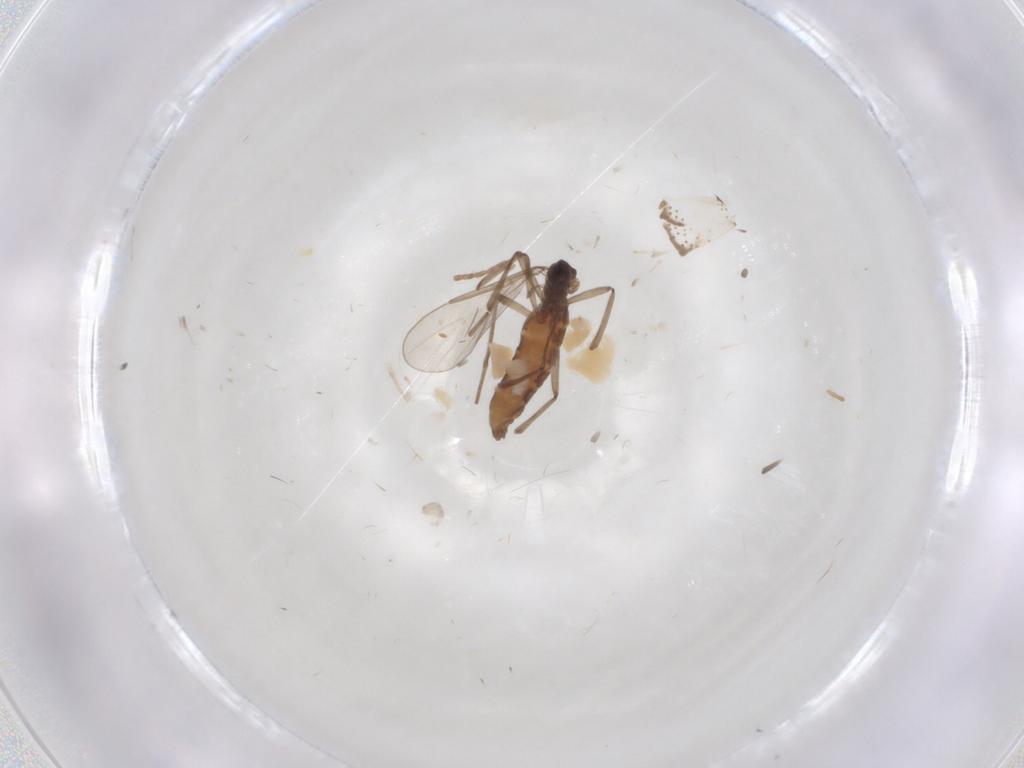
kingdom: Animalia
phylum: Arthropoda
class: Insecta
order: Diptera
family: Chaoboridae
